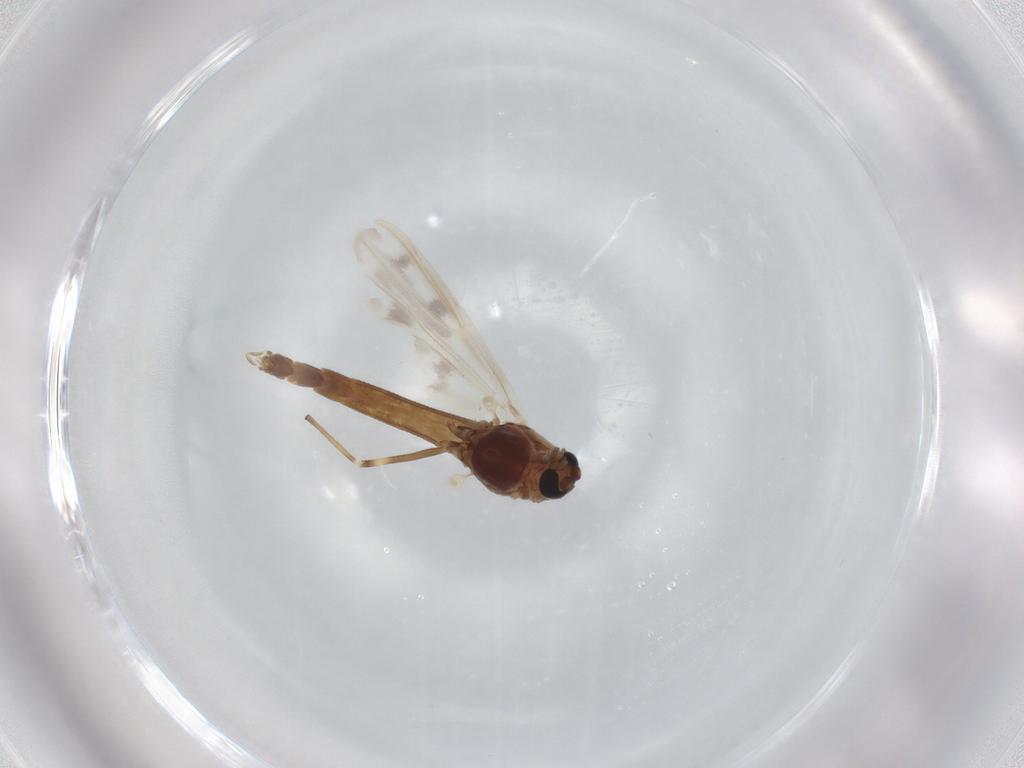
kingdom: Animalia
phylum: Arthropoda
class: Insecta
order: Diptera
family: Chironomidae
